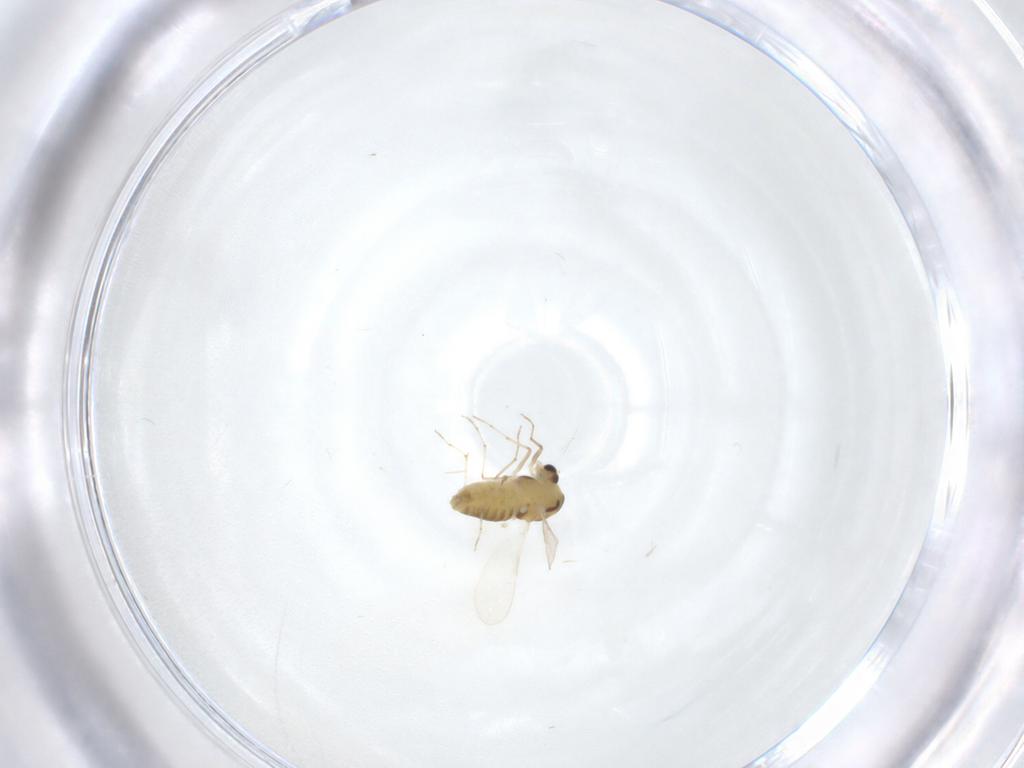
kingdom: Animalia
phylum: Arthropoda
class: Insecta
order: Diptera
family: Chironomidae
